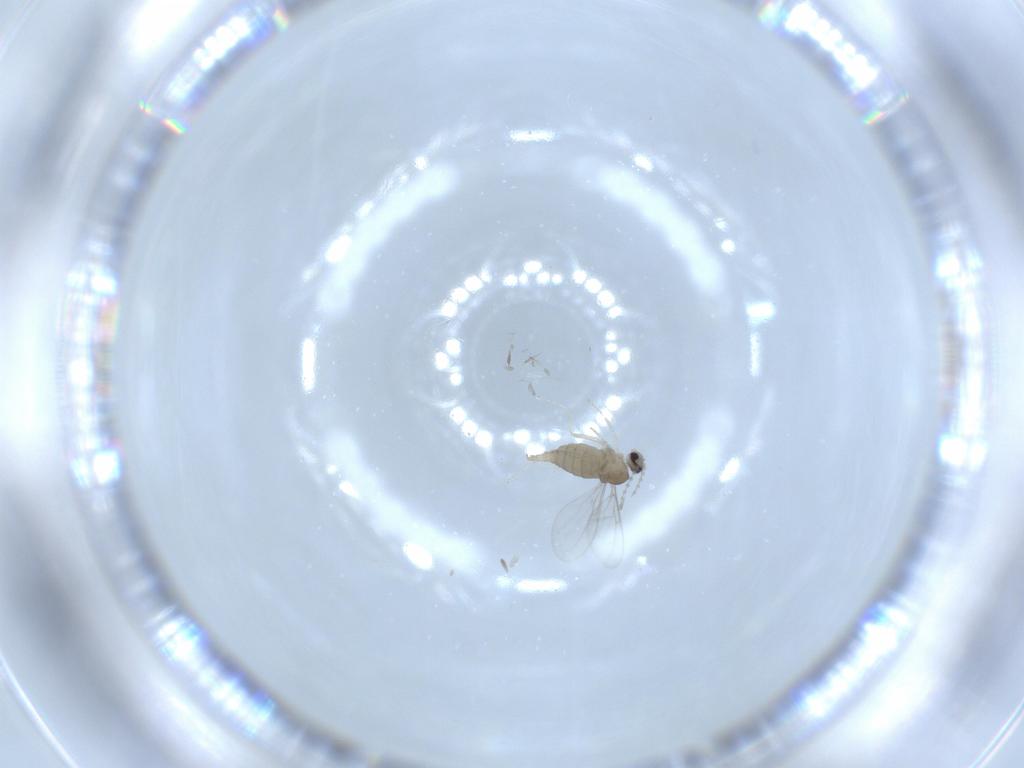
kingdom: Animalia
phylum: Arthropoda
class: Insecta
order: Diptera
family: Cecidomyiidae
